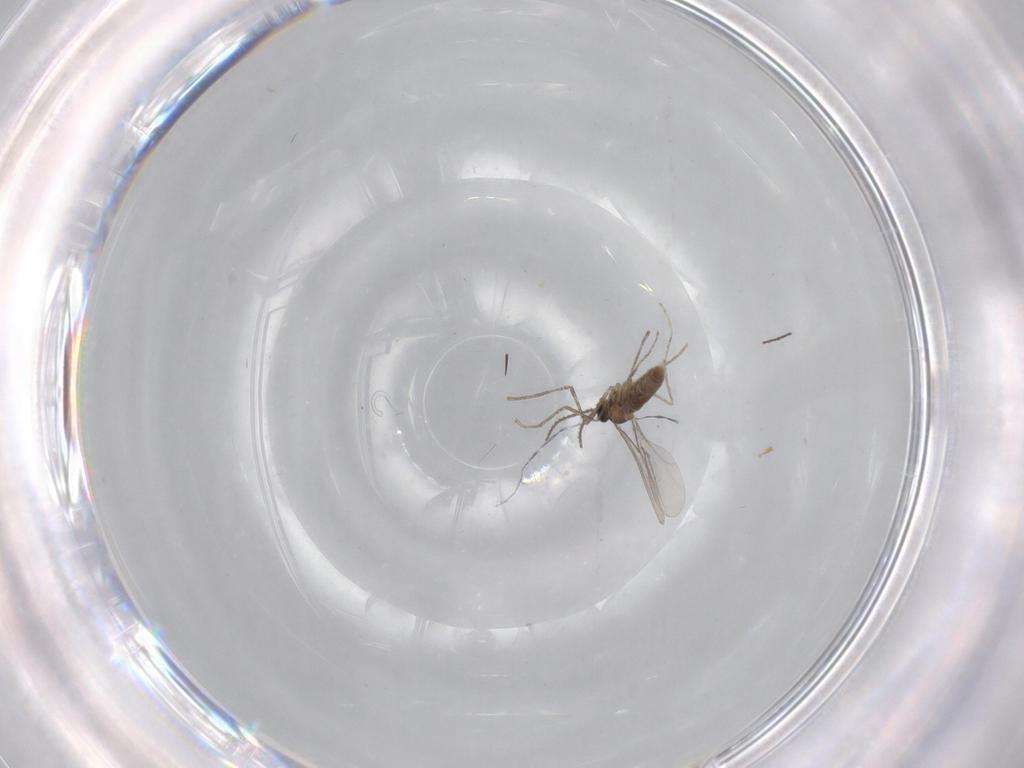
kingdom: Animalia
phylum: Arthropoda
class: Insecta
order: Diptera
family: Cecidomyiidae
